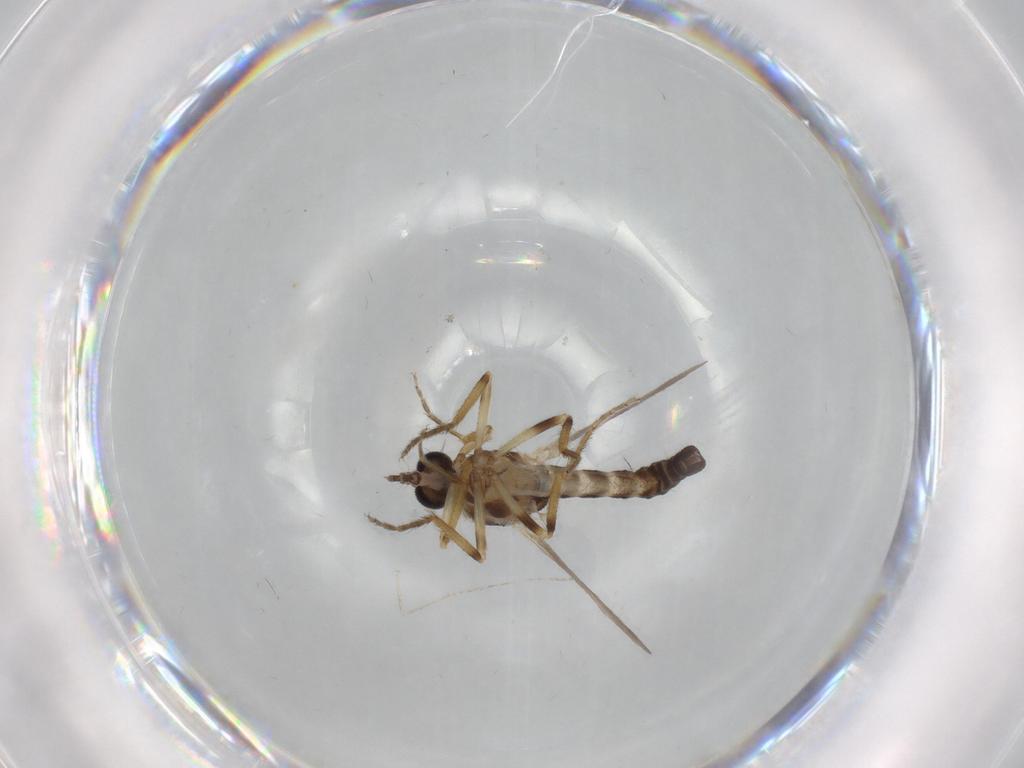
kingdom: Animalia
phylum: Arthropoda
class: Insecta
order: Diptera
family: Ceratopogonidae
